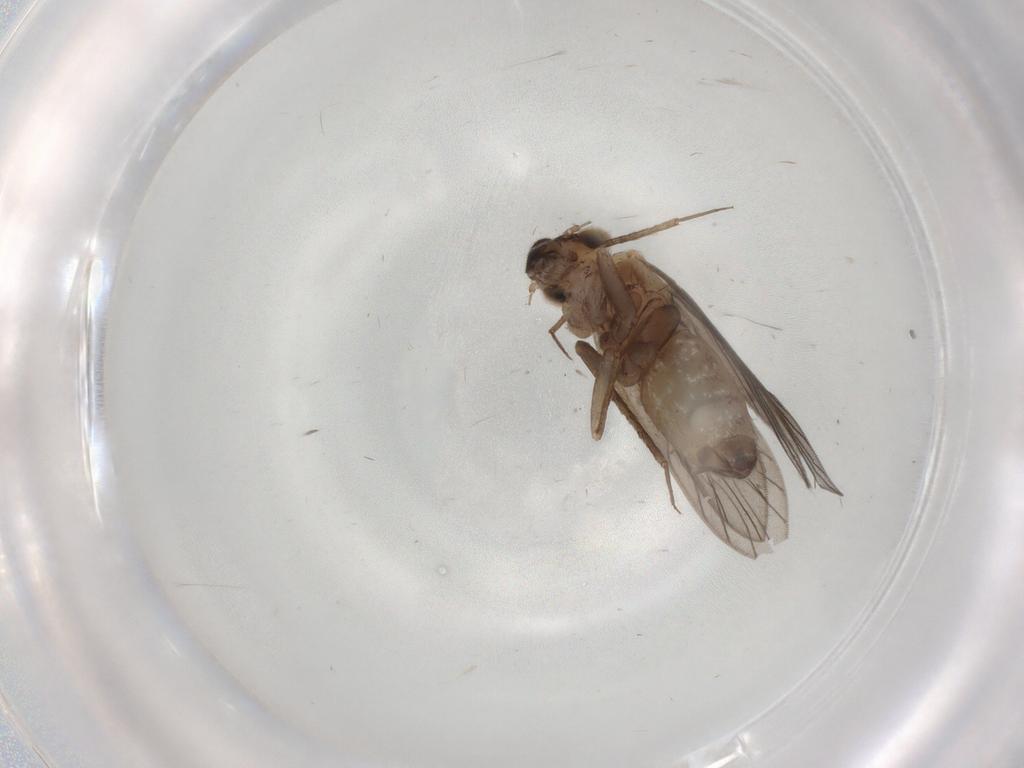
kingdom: Animalia
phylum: Arthropoda
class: Insecta
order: Psocodea
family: Lepidopsocidae
